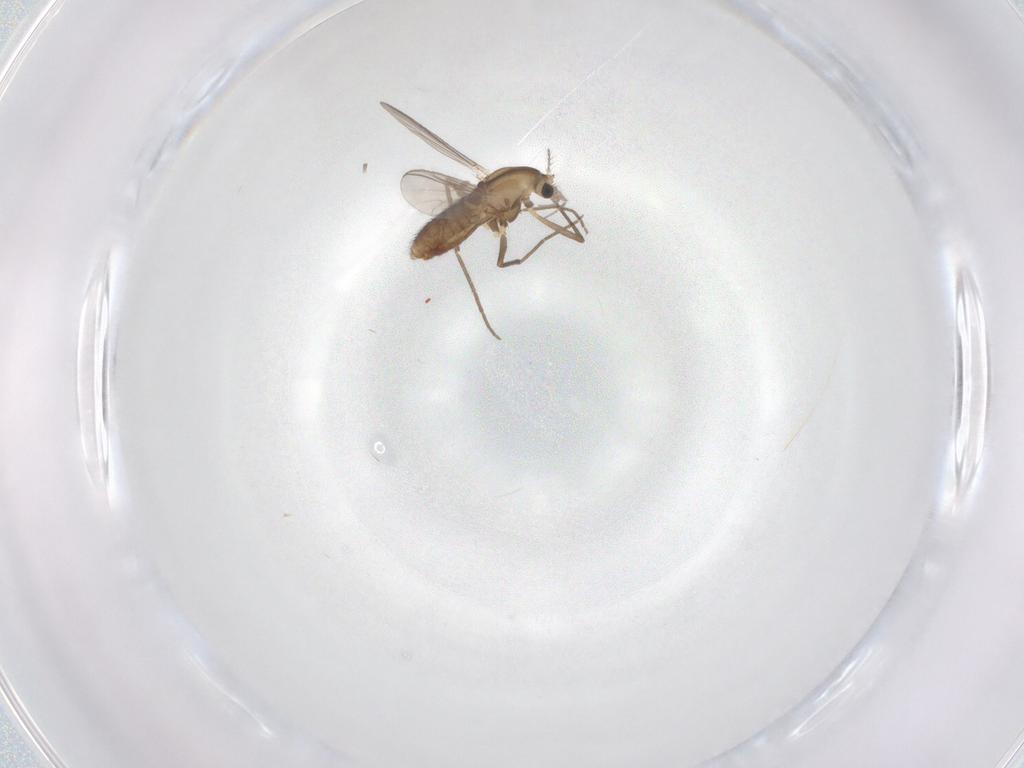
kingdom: Animalia
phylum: Arthropoda
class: Insecta
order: Diptera
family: Chironomidae
